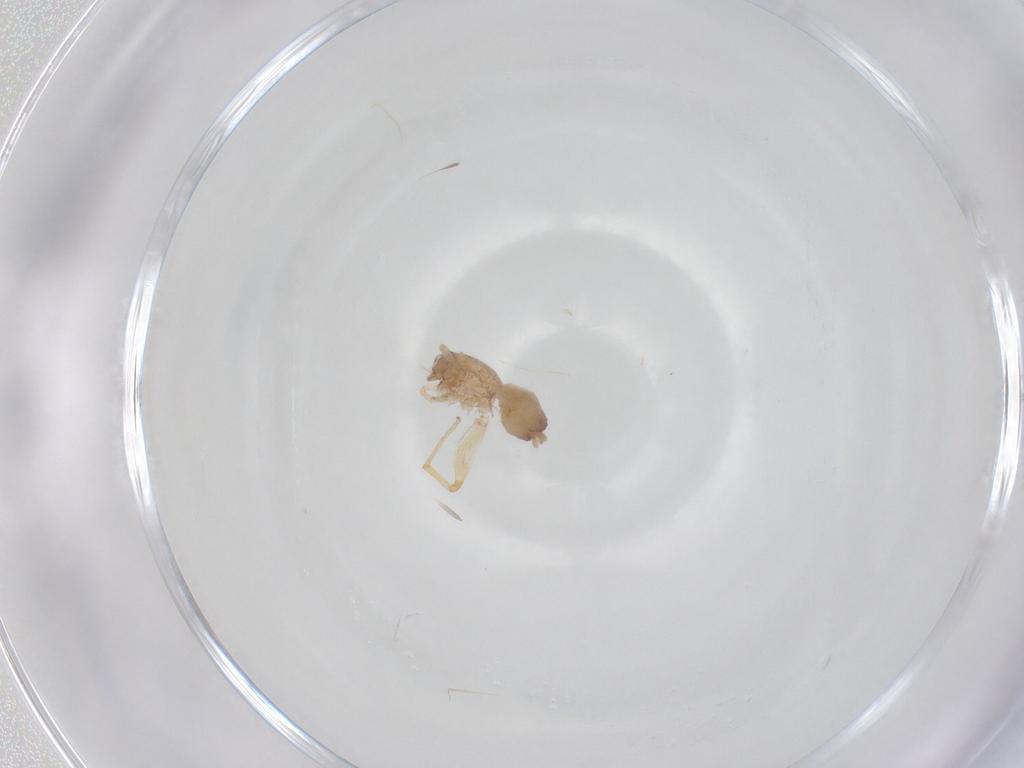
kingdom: Animalia
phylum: Arthropoda
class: Arachnida
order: Araneae
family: Idiopidae
